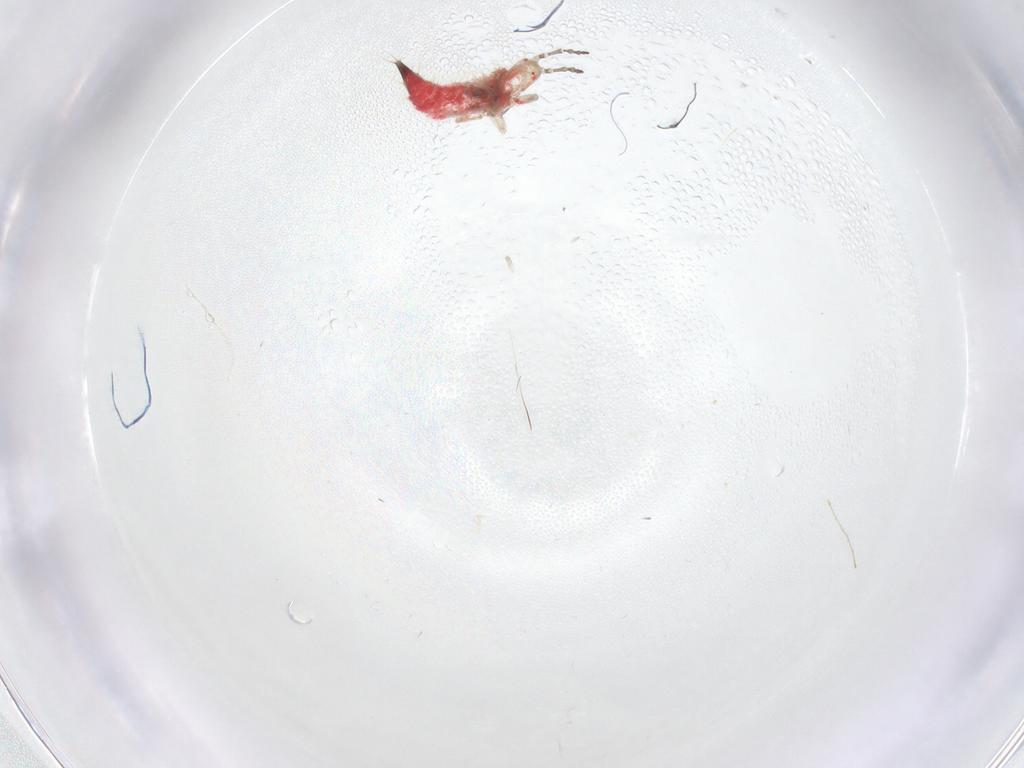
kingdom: Animalia
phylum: Arthropoda
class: Insecta
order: Thysanoptera
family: Phlaeothripidae
